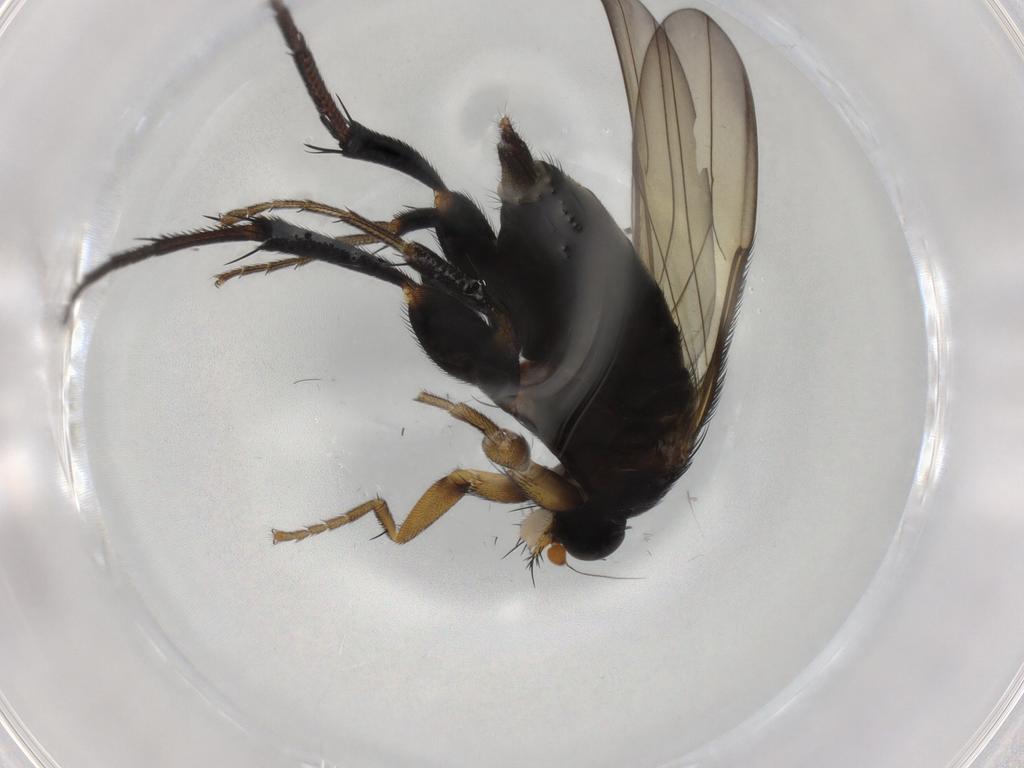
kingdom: Animalia
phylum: Arthropoda
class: Insecta
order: Diptera
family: Phoridae
